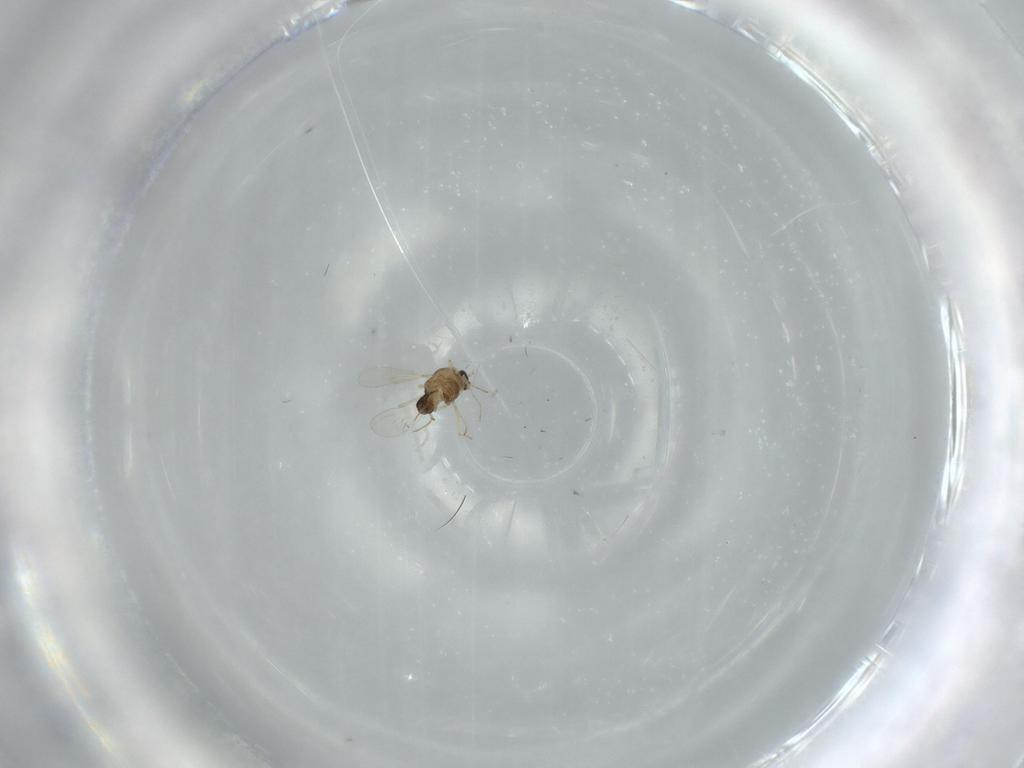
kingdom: Animalia
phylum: Arthropoda
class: Insecta
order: Diptera
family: Chironomidae
